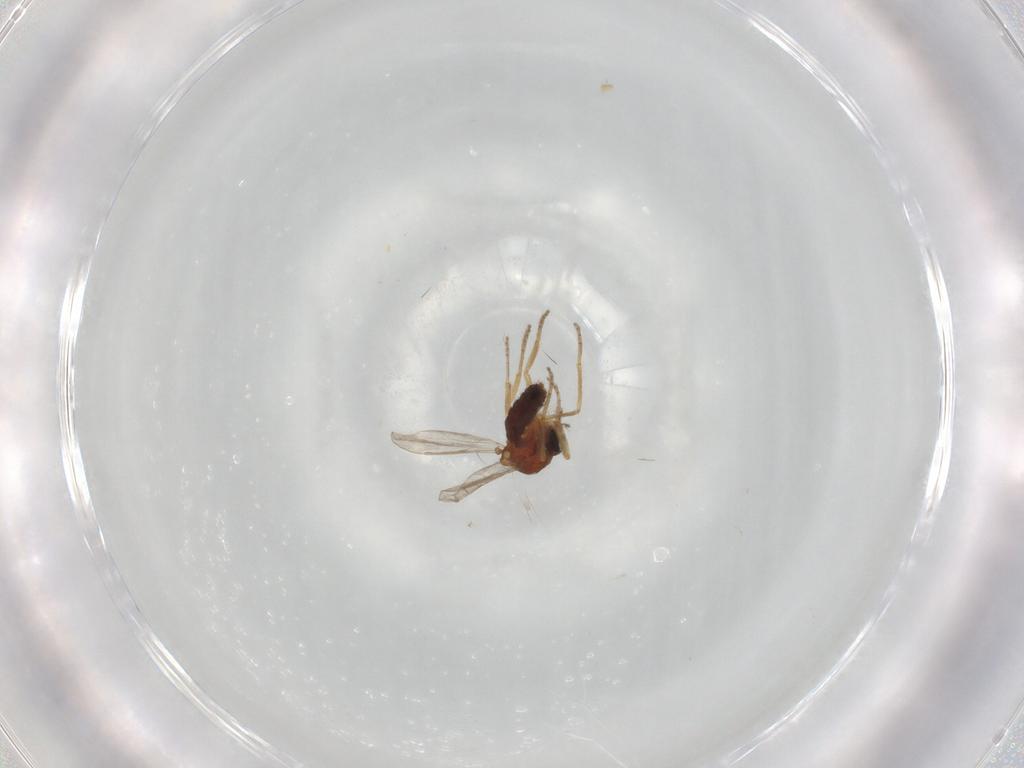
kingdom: Animalia
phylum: Arthropoda
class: Insecta
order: Diptera
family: Ceratopogonidae
